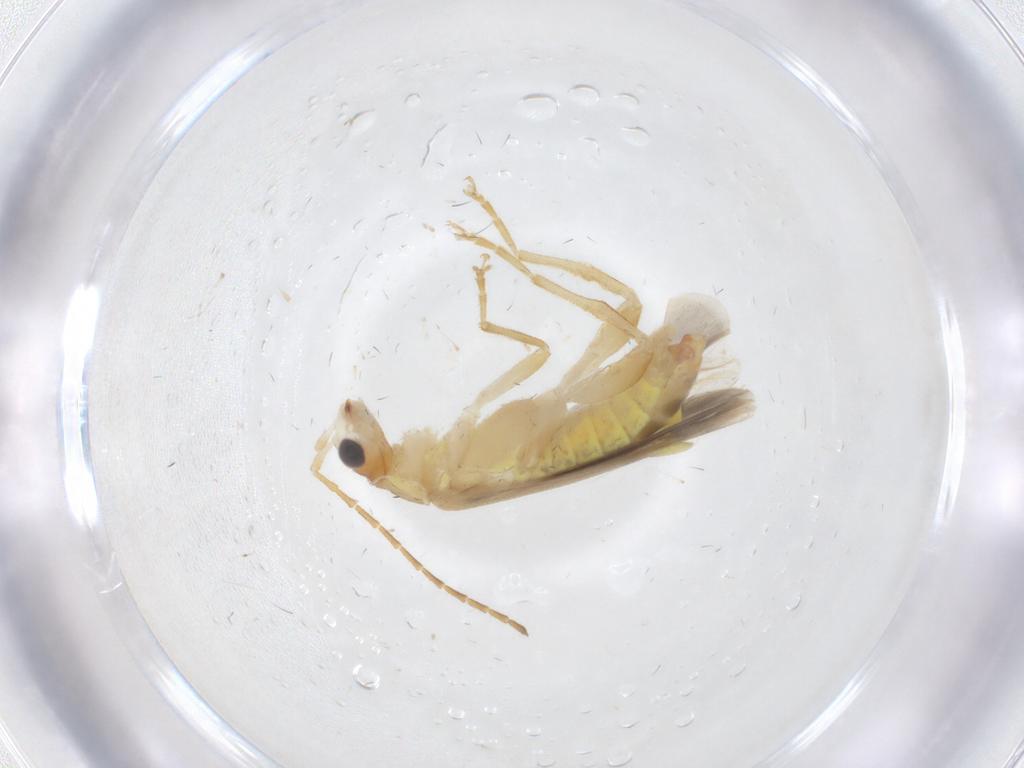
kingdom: Animalia
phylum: Arthropoda
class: Insecta
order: Coleoptera
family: Cantharidae
